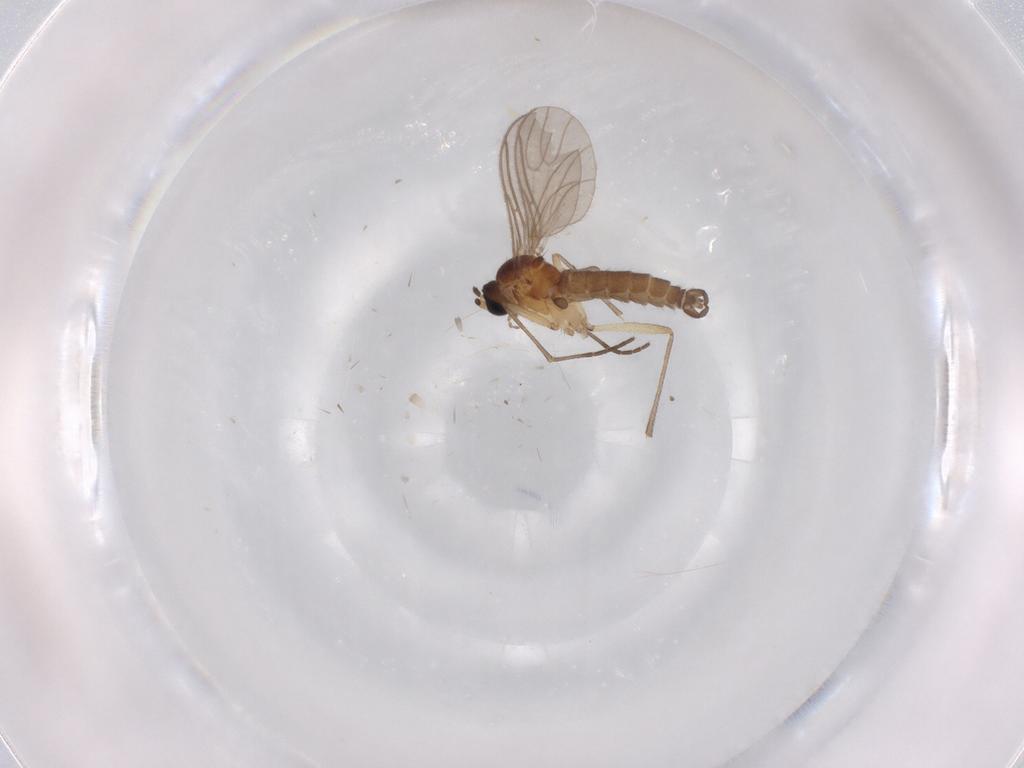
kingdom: Animalia
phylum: Arthropoda
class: Insecta
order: Diptera
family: Sciaridae
